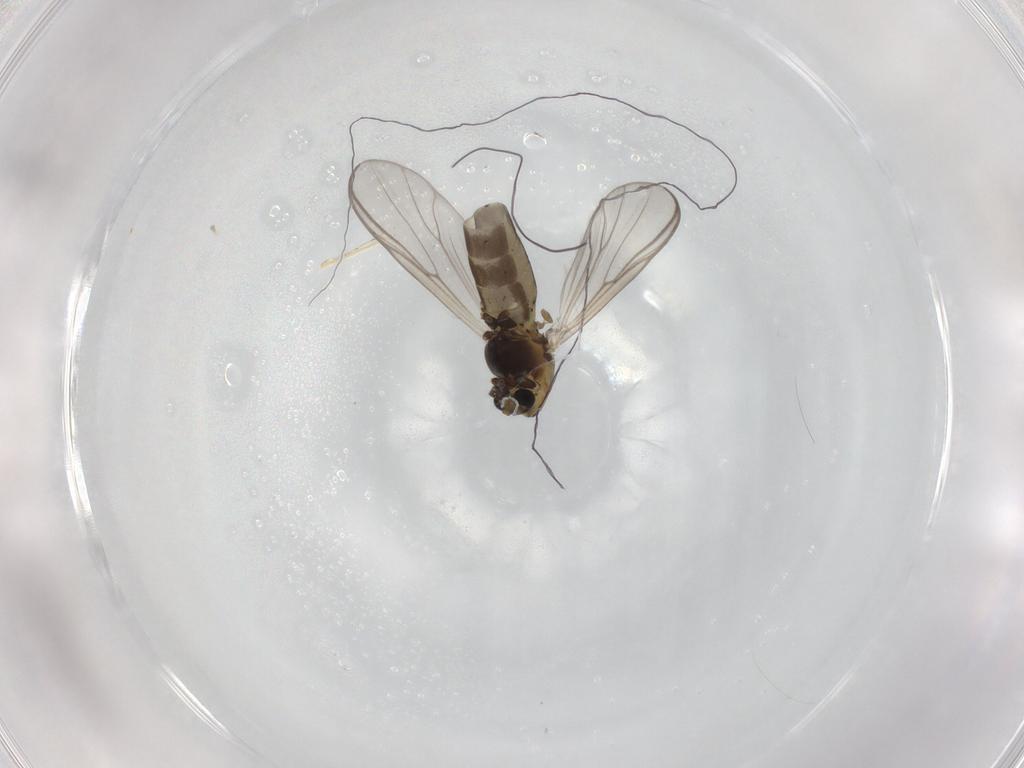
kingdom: Animalia
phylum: Arthropoda
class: Insecta
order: Diptera
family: Chironomidae
